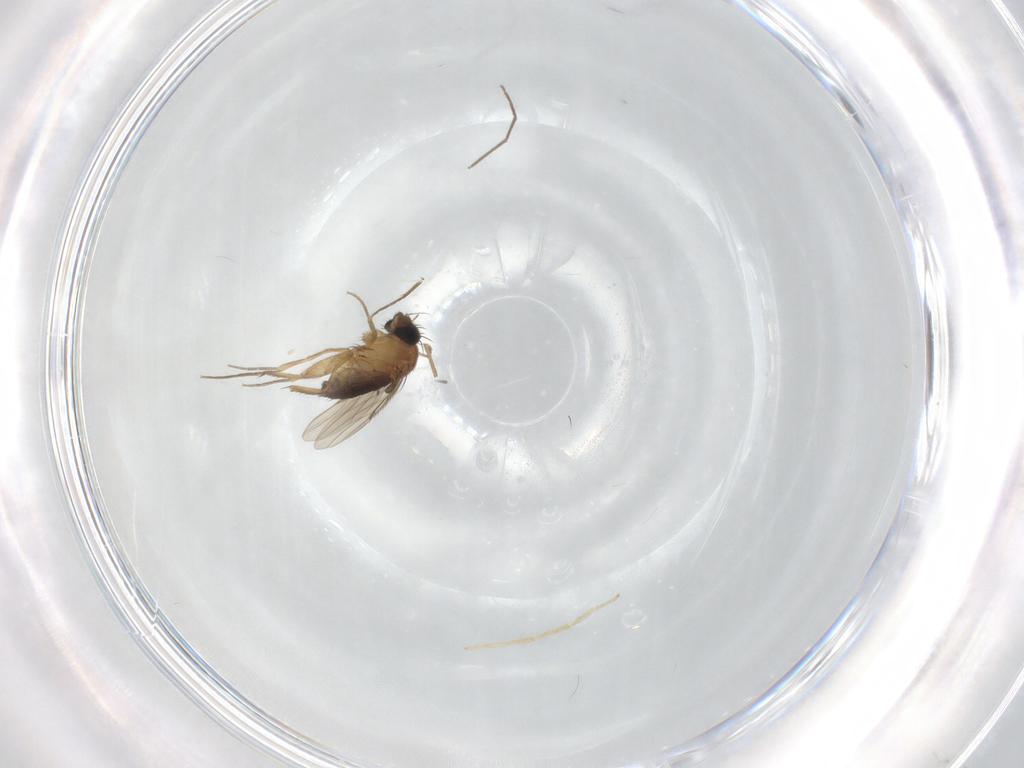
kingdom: Animalia
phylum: Arthropoda
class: Insecta
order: Diptera
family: Phoridae
